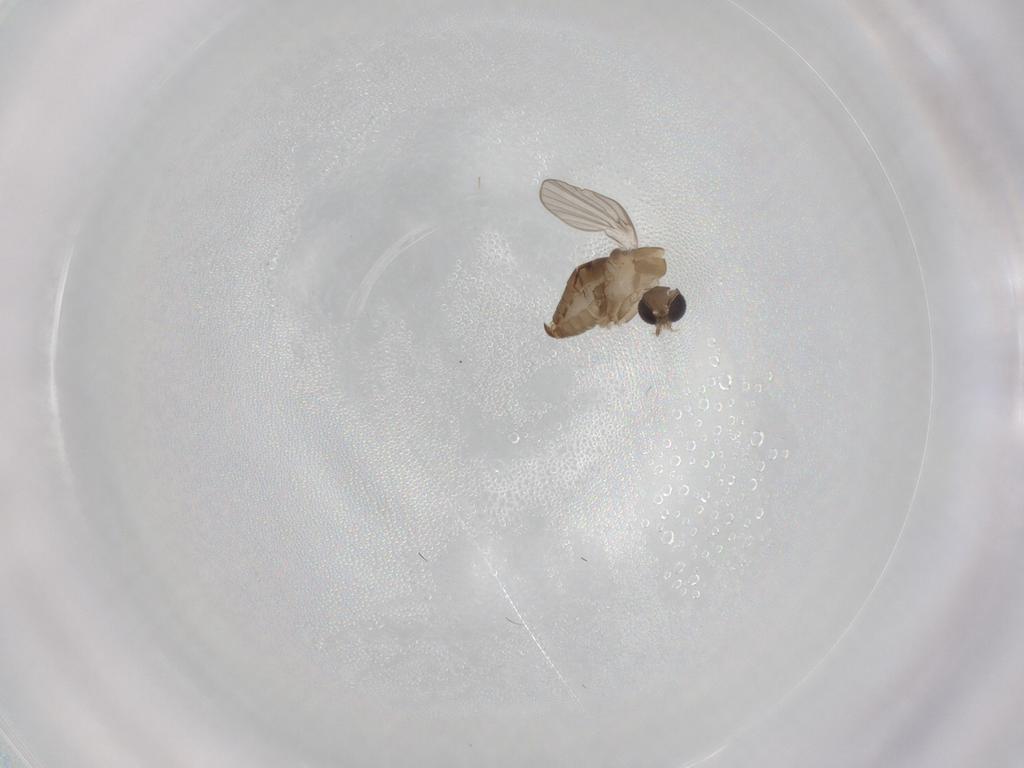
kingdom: Animalia
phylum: Arthropoda
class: Insecta
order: Diptera
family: Psychodidae
